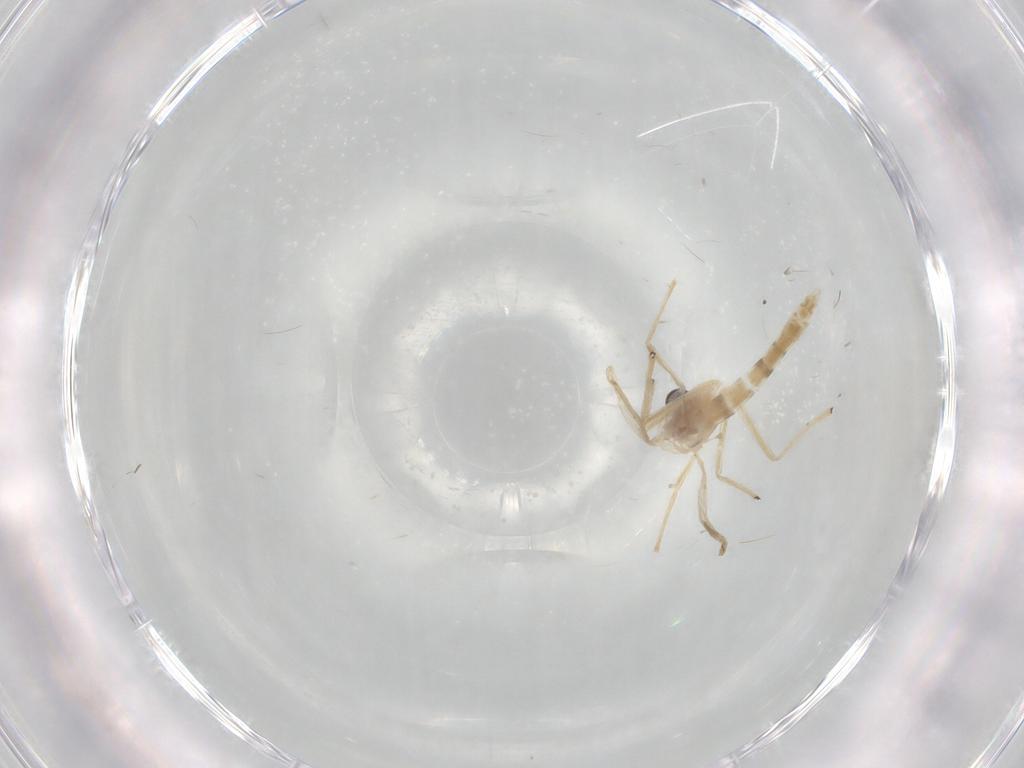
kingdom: Animalia
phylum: Arthropoda
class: Insecta
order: Diptera
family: Chironomidae
